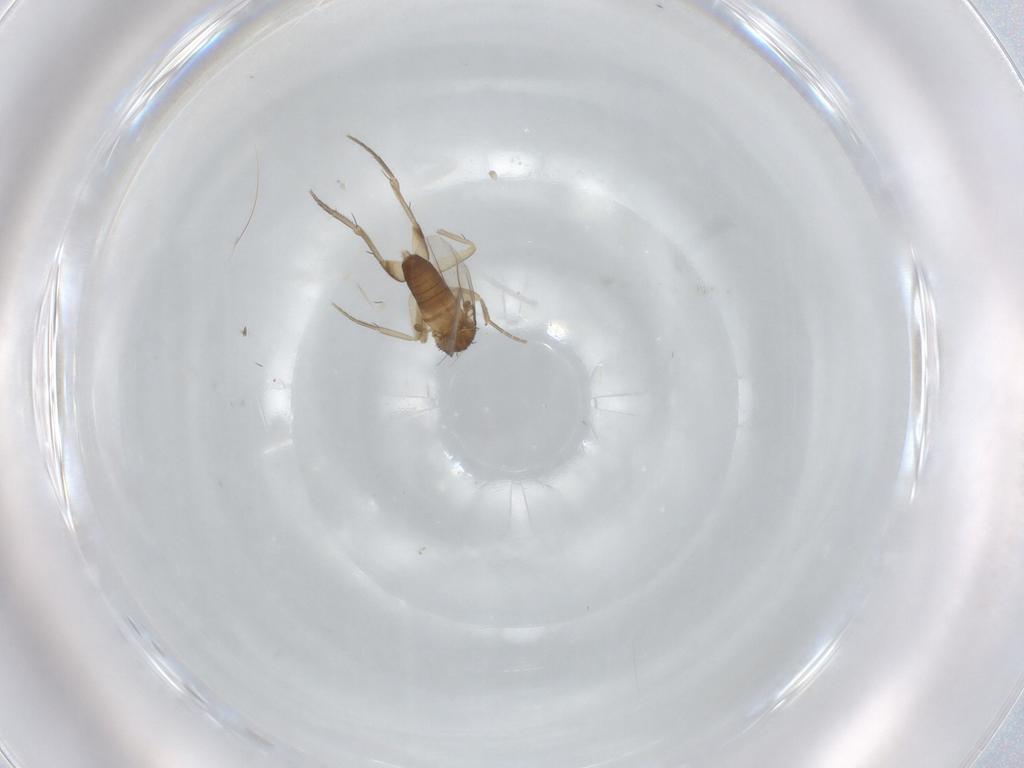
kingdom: Animalia
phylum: Arthropoda
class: Insecta
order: Diptera
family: Phoridae
